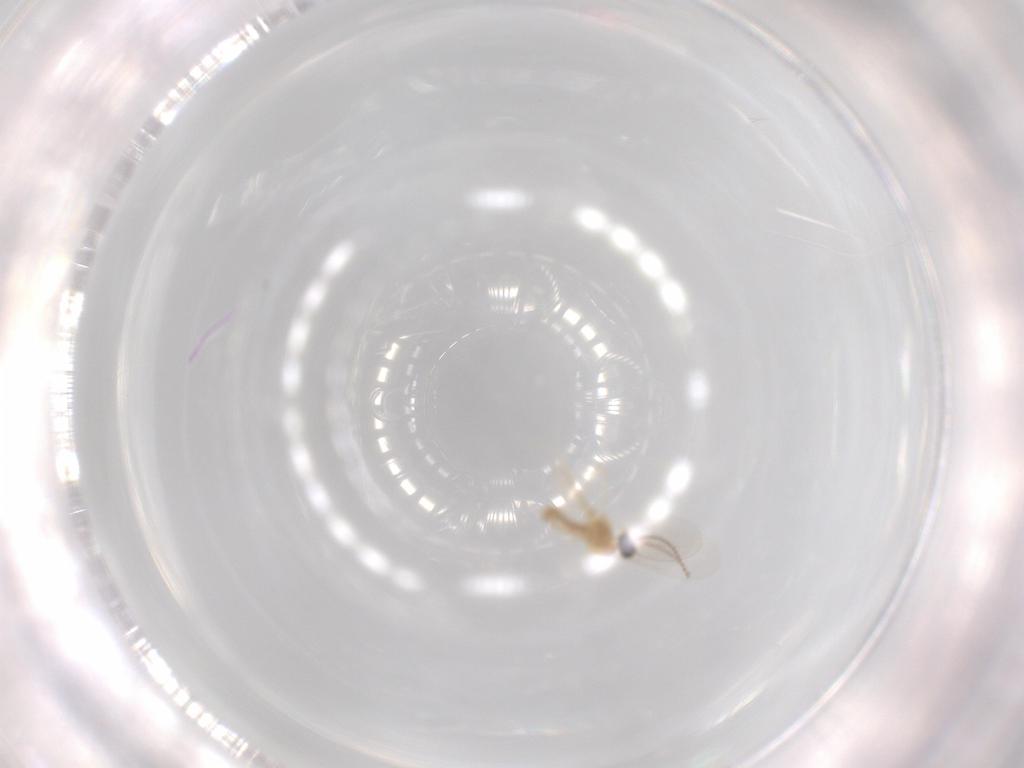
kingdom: Animalia
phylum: Arthropoda
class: Insecta
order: Diptera
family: Cecidomyiidae
